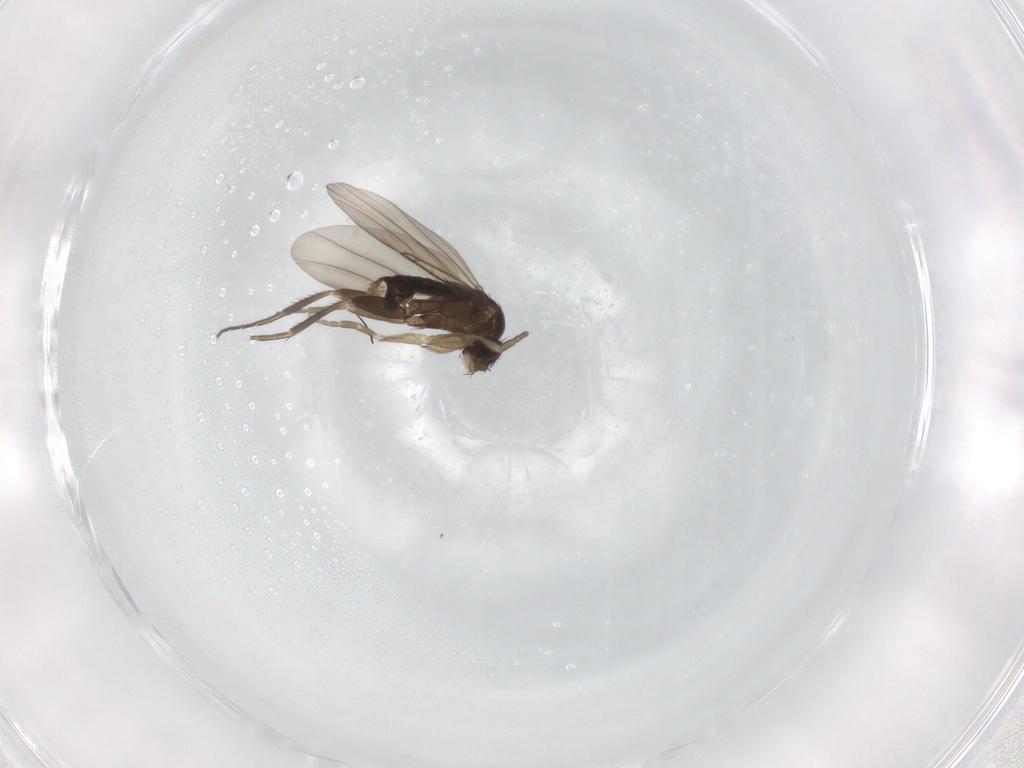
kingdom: Animalia
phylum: Arthropoda
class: Insecta
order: Diptera
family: Phoridae
